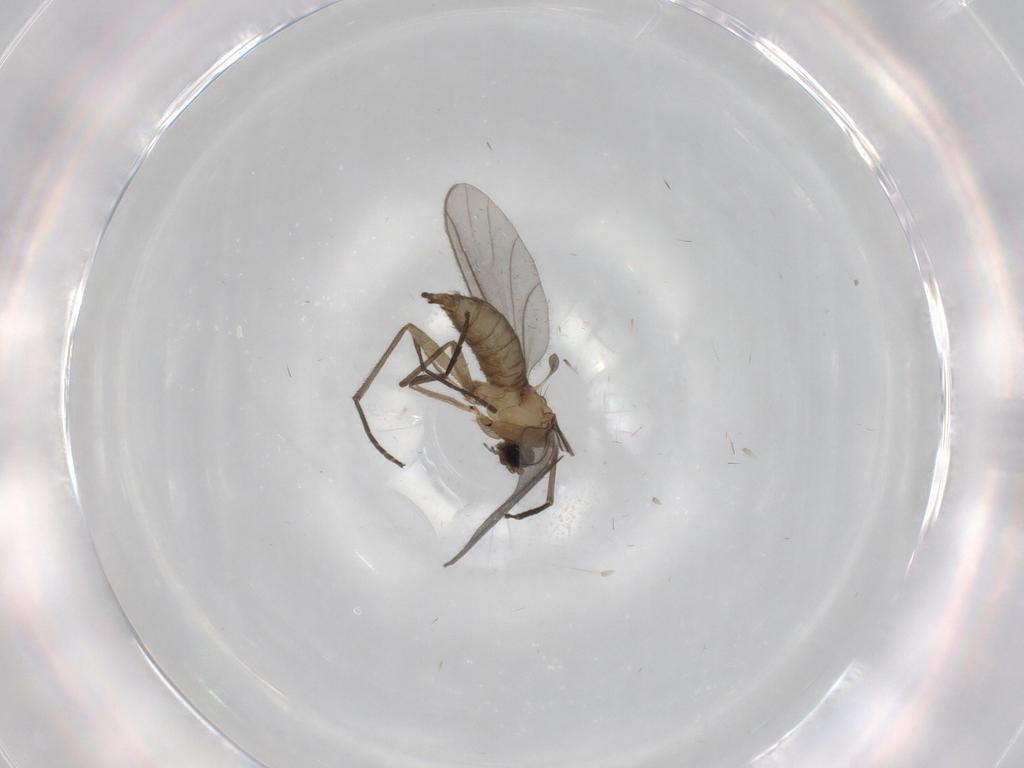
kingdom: Animalia
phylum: Arthropoda
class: Insecta
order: Diptera
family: Sciaridae
